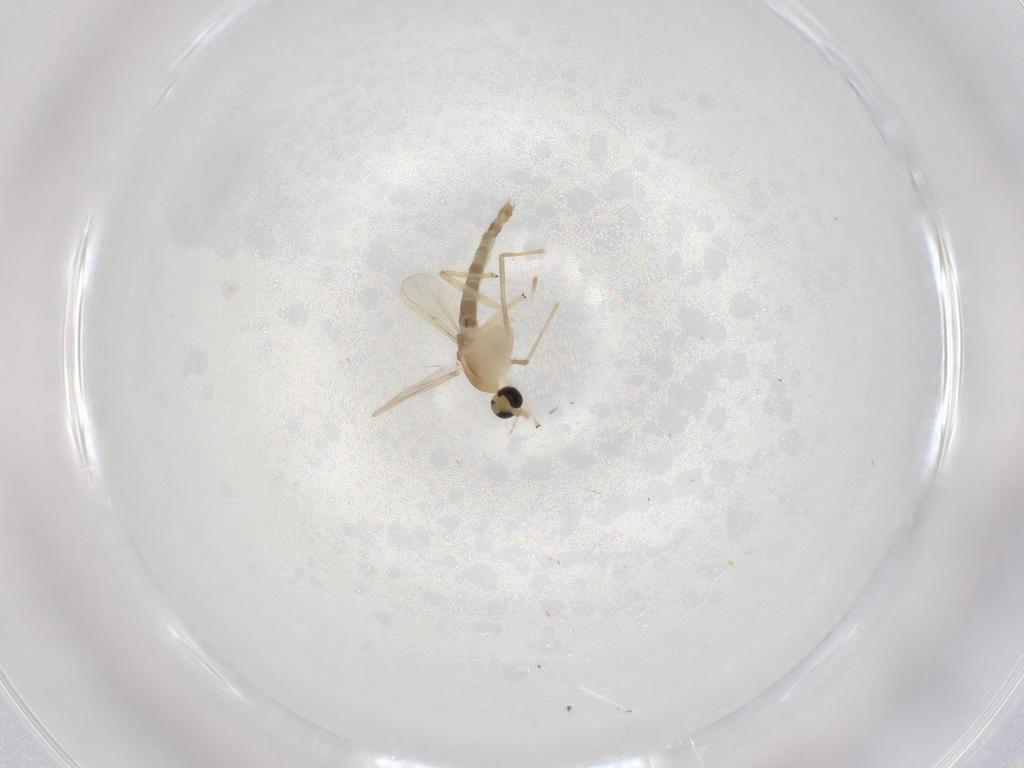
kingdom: Animalia
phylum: Arthropoda
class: Insecta
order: Diptera
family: Chironomidae
